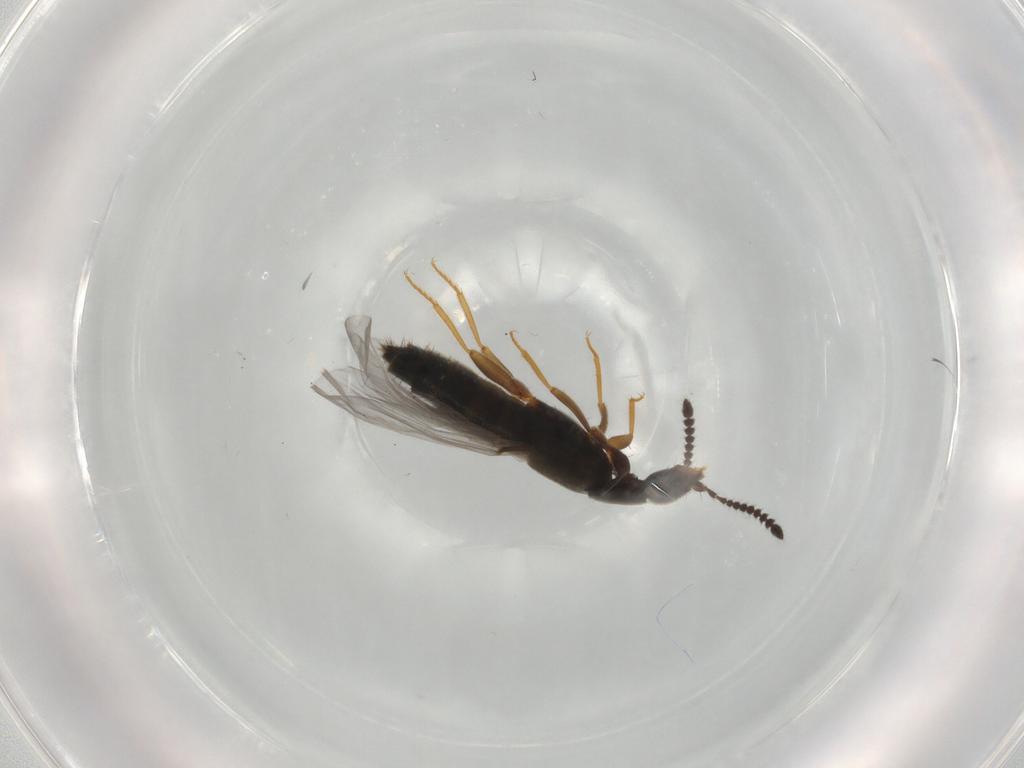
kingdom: Animalia
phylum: Arthropoda
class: Insecta
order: Coleoptera
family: Staphylinidae
